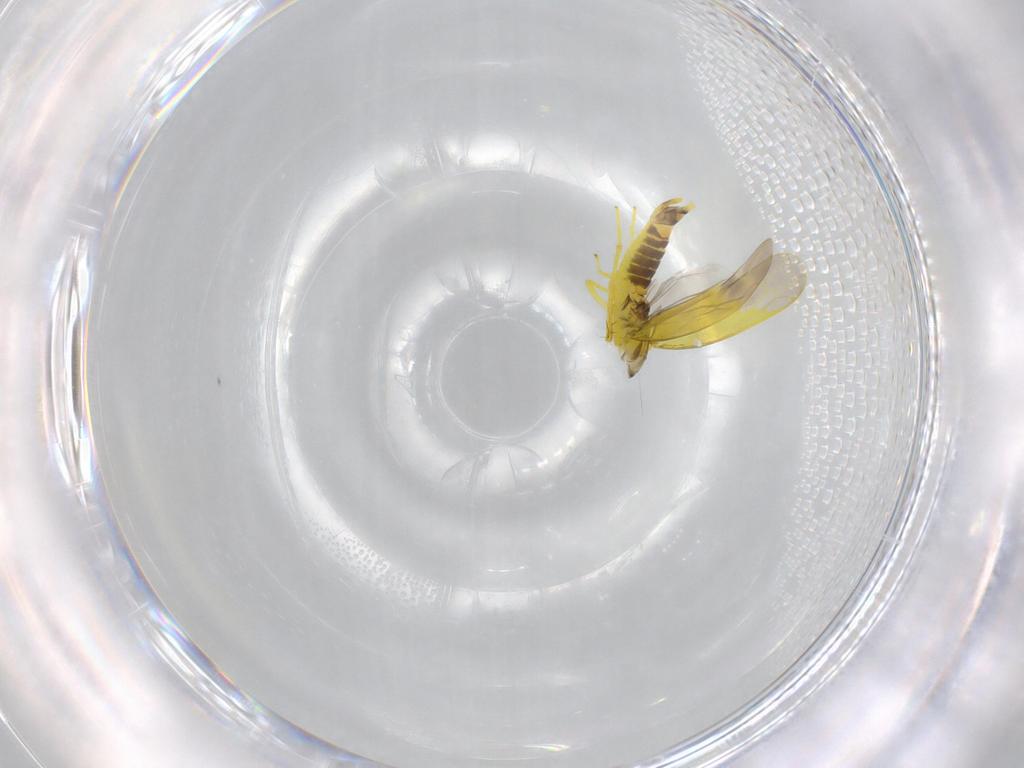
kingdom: Animalia
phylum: Arthropoda
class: Insecta
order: Hemiptera
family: Cicadellidae
